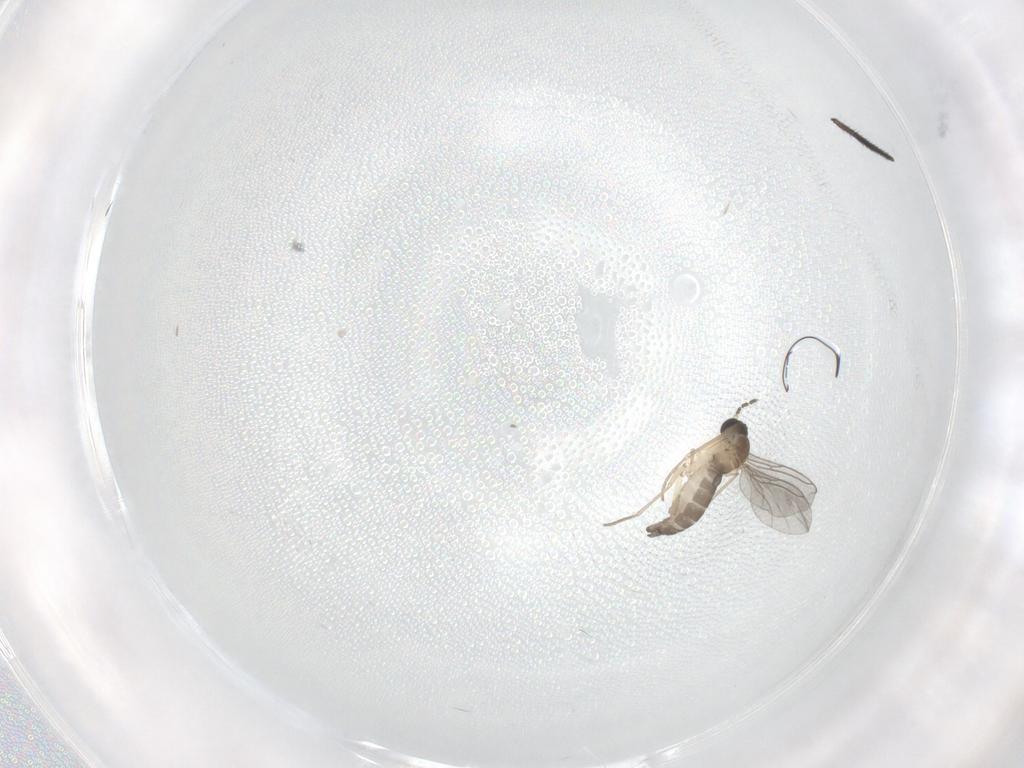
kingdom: Animalia
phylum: Arthropoda
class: Insecta
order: Diptera
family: Sciaridae
